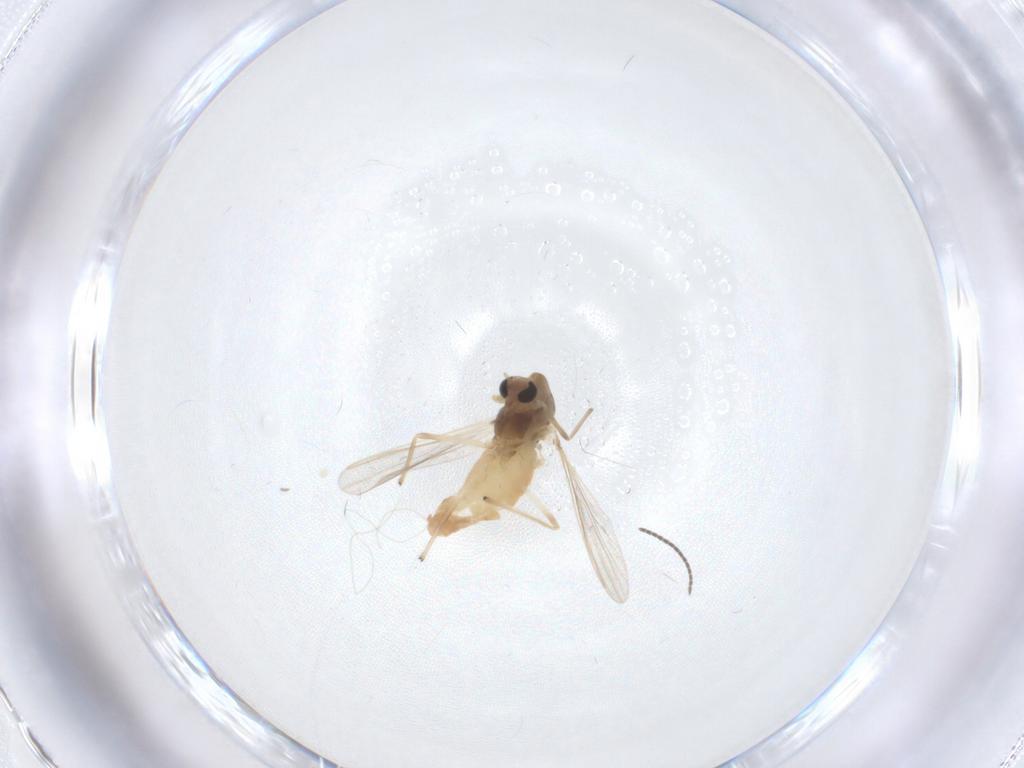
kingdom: Animalia
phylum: Arthropoda
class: Insecta
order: Diptera
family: Chironomidae
